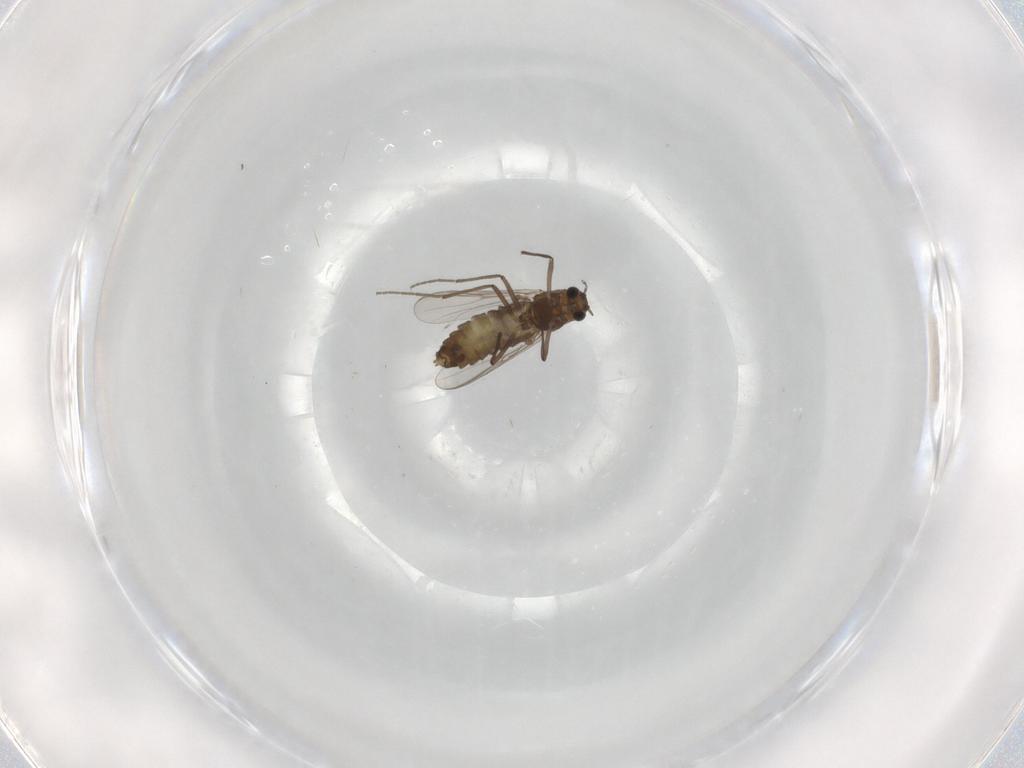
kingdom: Animalia
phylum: Arthropoda
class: Insecta
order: Diptera
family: Chironomidae
